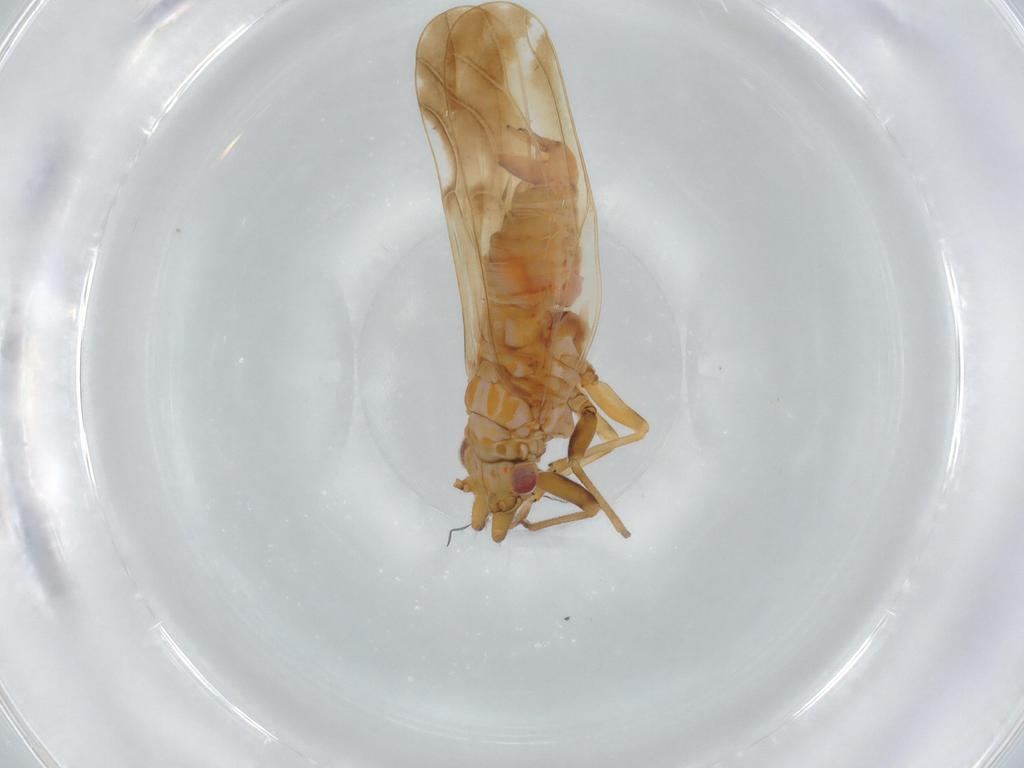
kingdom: Animalia
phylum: Arthropoda
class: Insecta
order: Hemiptera
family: Psyllidae
